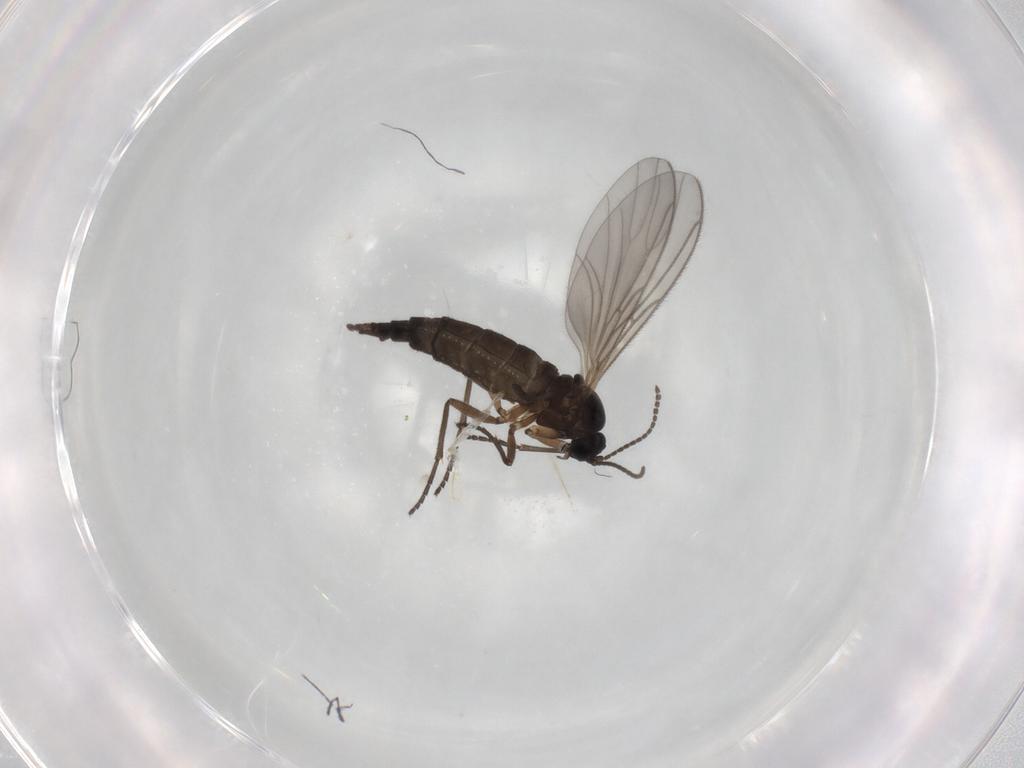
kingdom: Animalia
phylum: Arthropoda
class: Insecta
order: Diptera
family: Sciaridae
